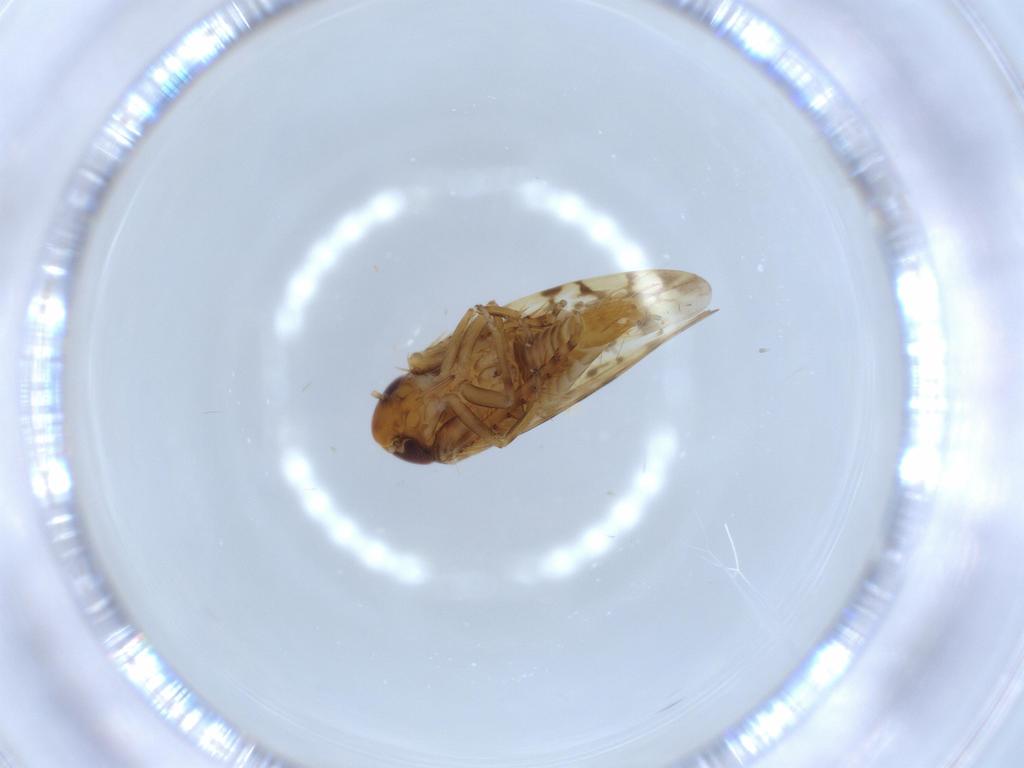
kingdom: Animalia
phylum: Arthropoda
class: Insecta
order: Hemiptera
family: Cicadellidae
